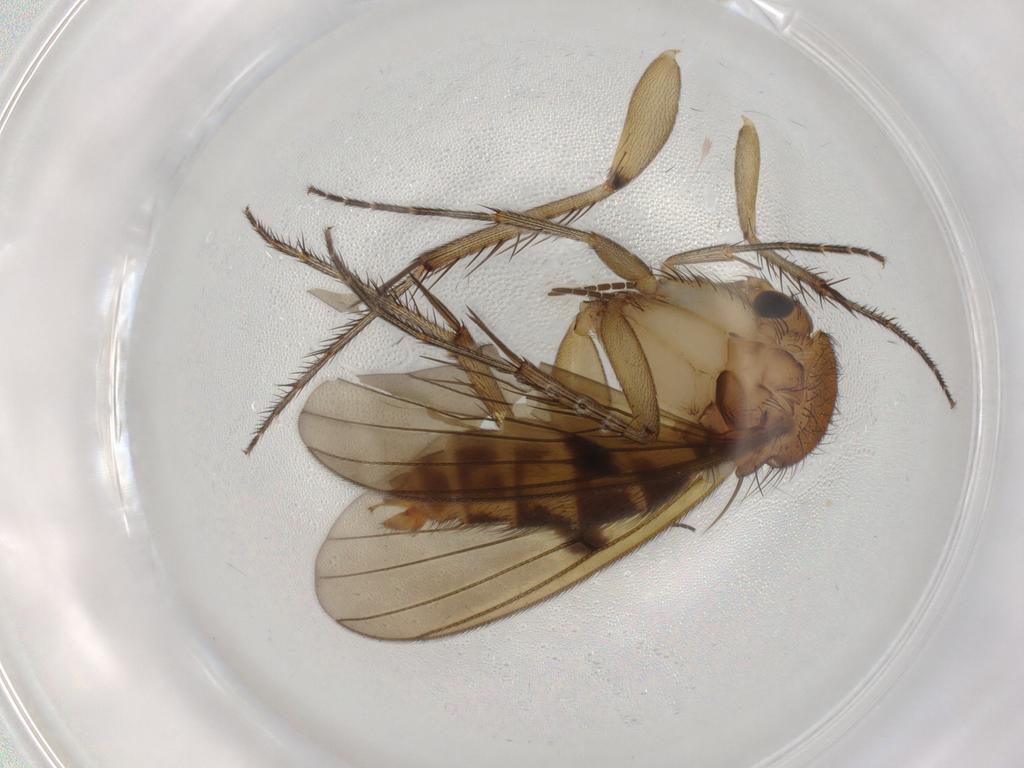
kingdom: Animalia
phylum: Arthropoda
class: Insecta
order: Diptera
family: Mycetophilidae
